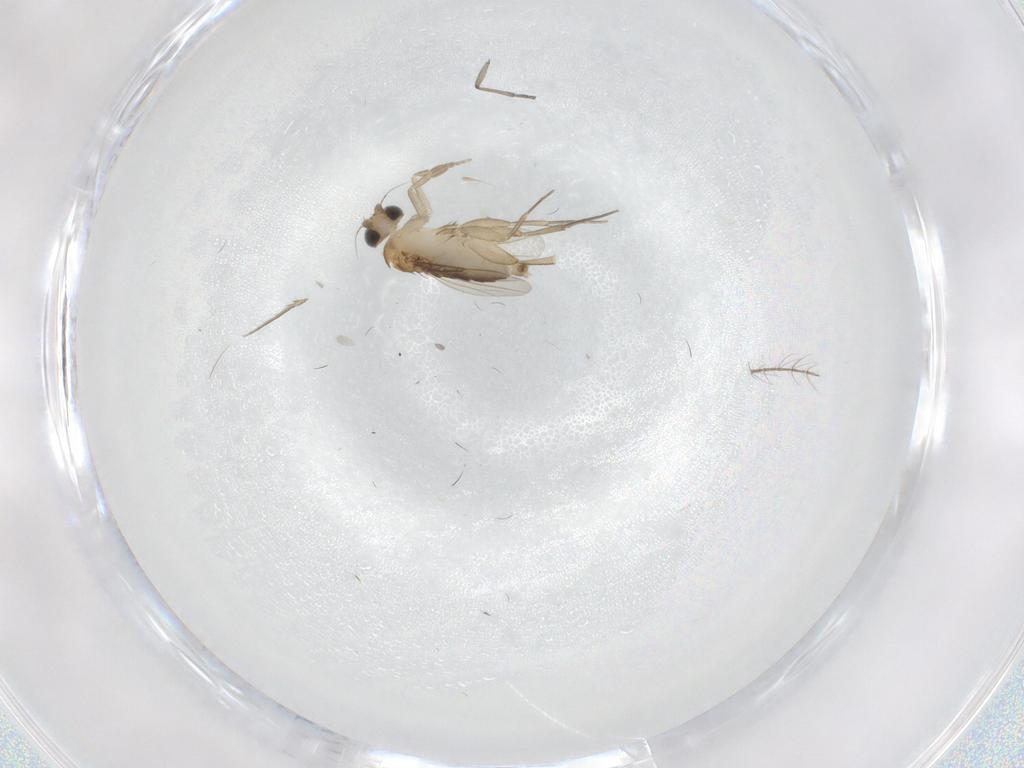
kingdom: Animalia
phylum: Arthropoda
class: Insecta
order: Diptera
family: Phoridae
